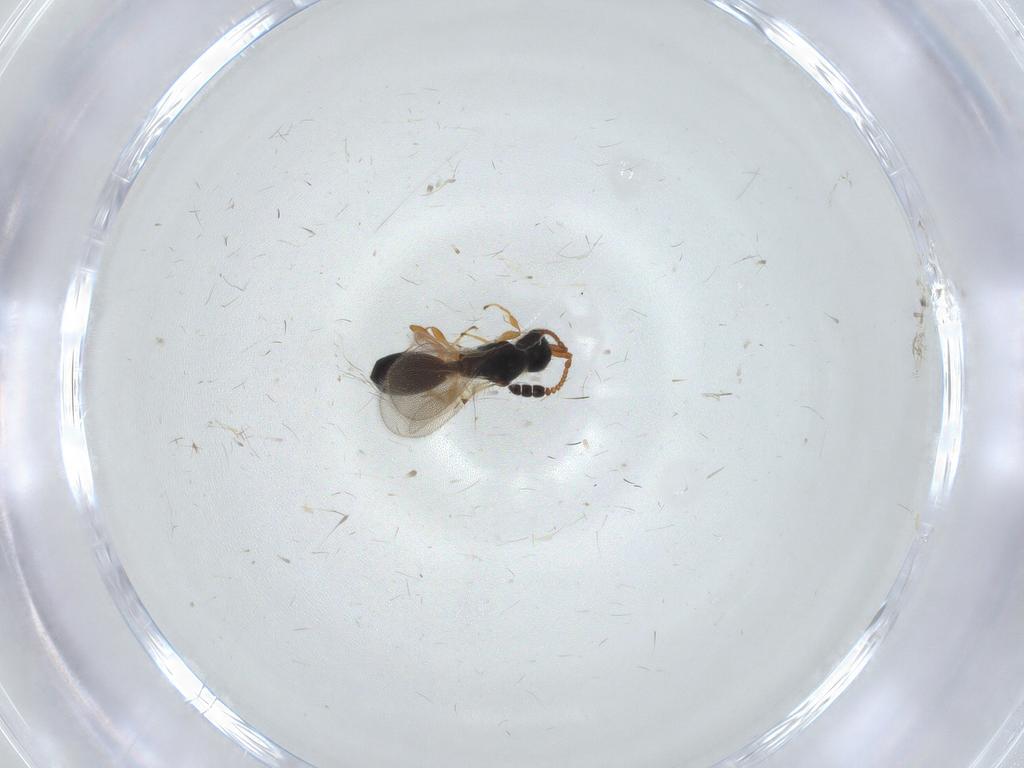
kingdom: Animalia
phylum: Arthropoda
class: Insecta
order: Hymenoptera
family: Diapriidae
